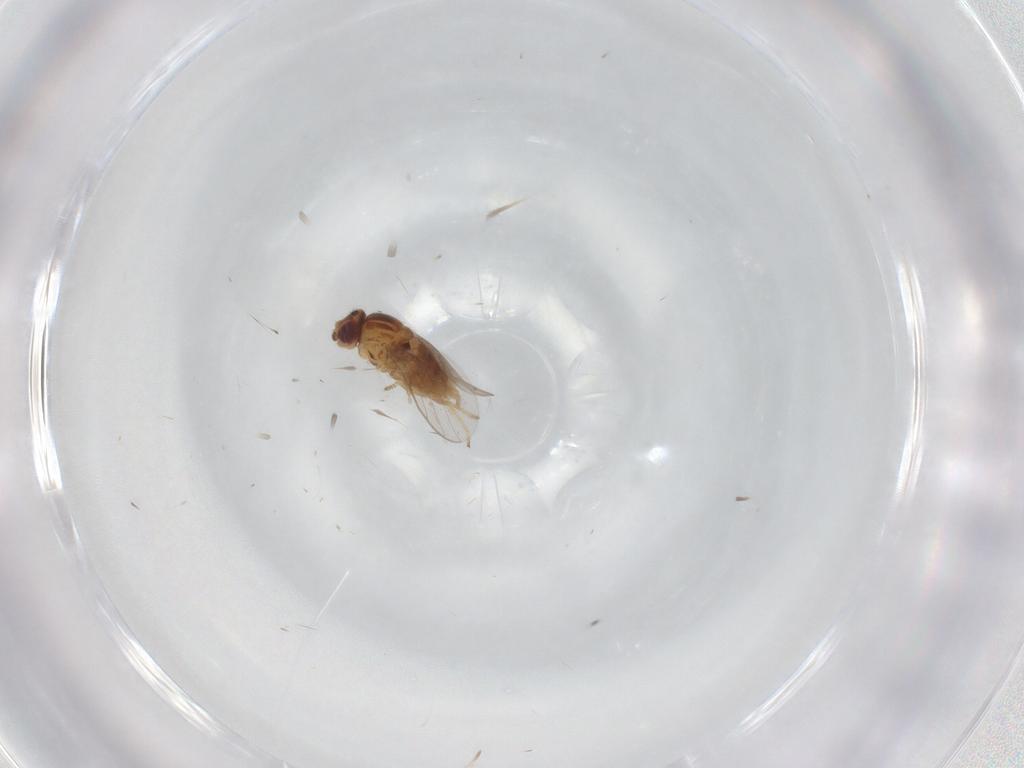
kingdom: Animalia
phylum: Arthropoda
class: Insecta
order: Diptera
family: Chloropidae
